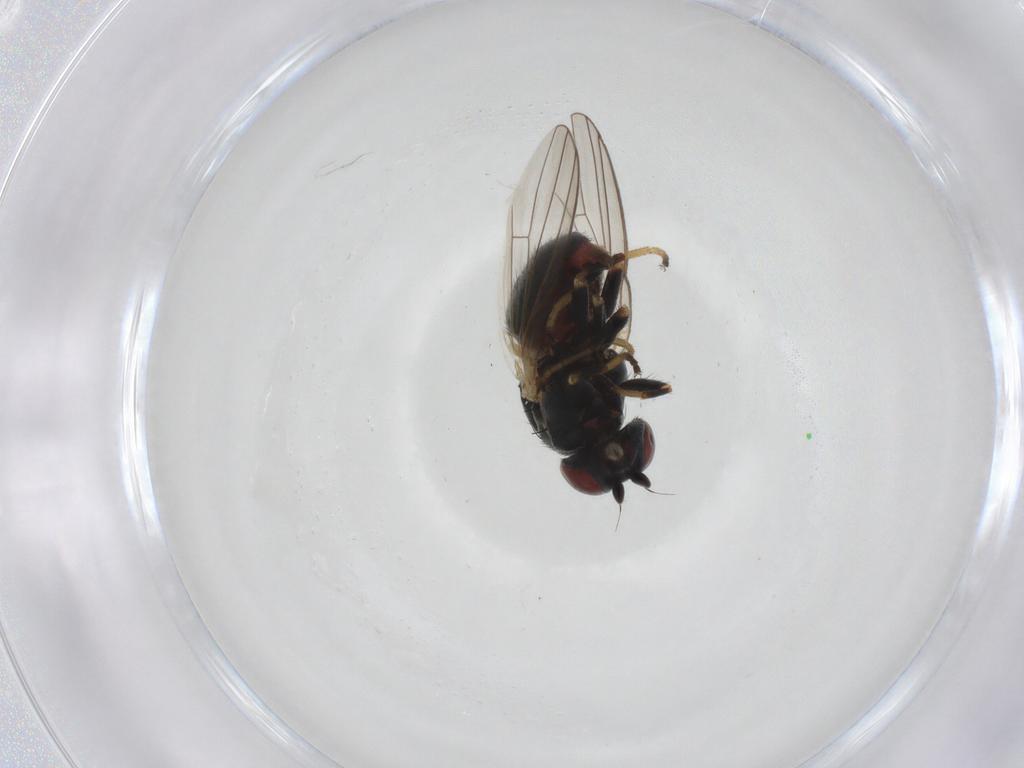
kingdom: Animalia
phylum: Arthropoda
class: Insecta
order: Diptera
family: Chamaemyiidae
